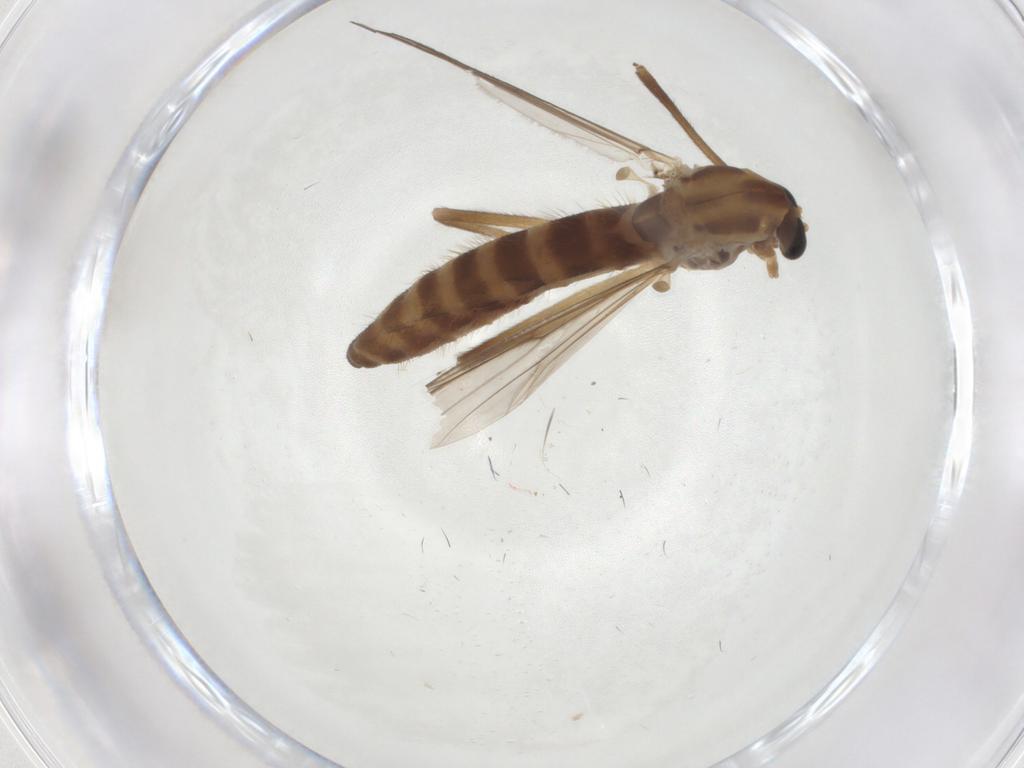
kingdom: Animalia
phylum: Arthropoda
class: Insecta
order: Diptera
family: Chironomidae
